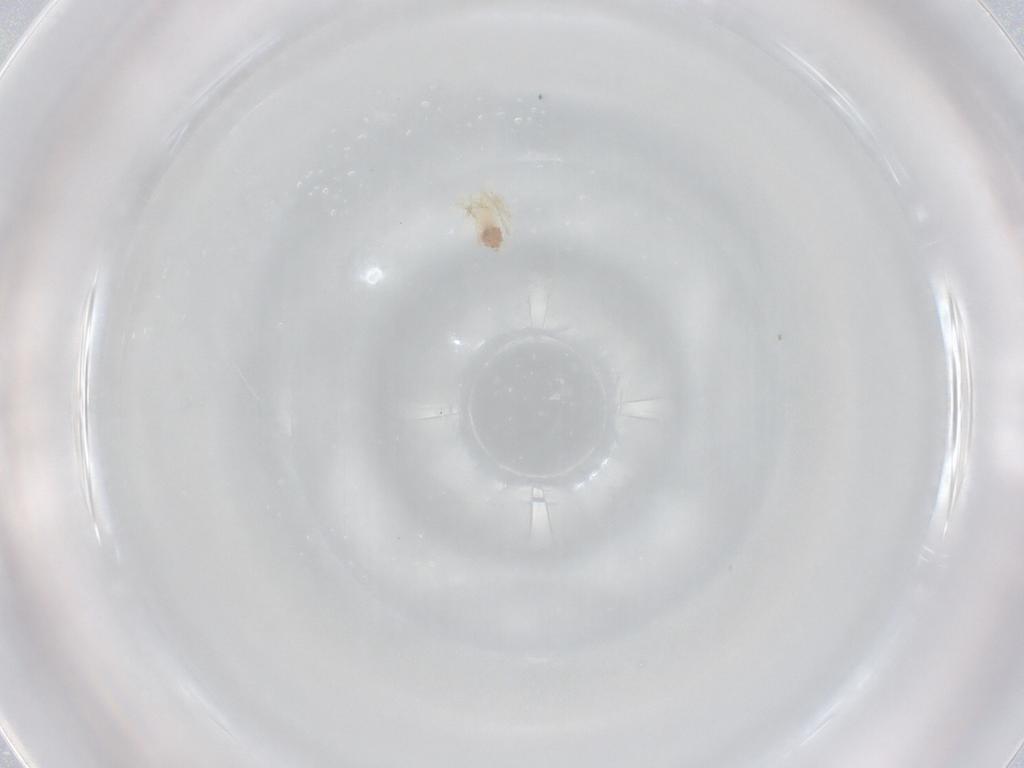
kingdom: Animalia
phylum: Arthropoda
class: Arachnida
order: Trombidiformes
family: Anystidae
